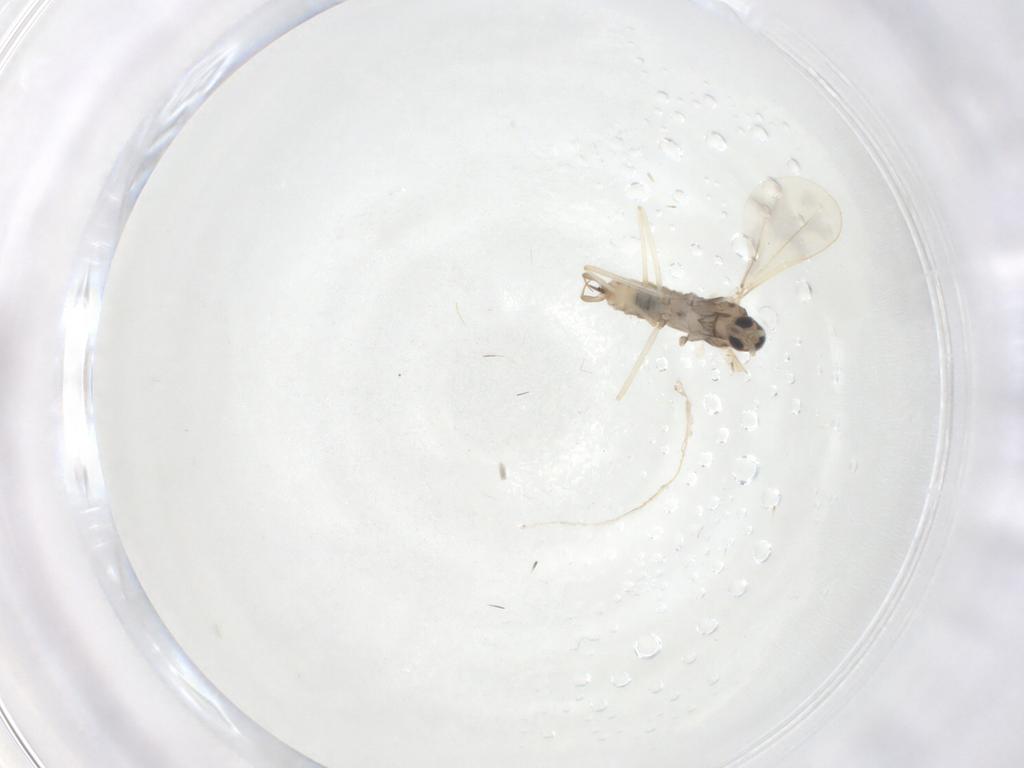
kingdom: Animalia
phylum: Arthropoda
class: Insecta
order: Diptera
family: Cecidomyiidae
